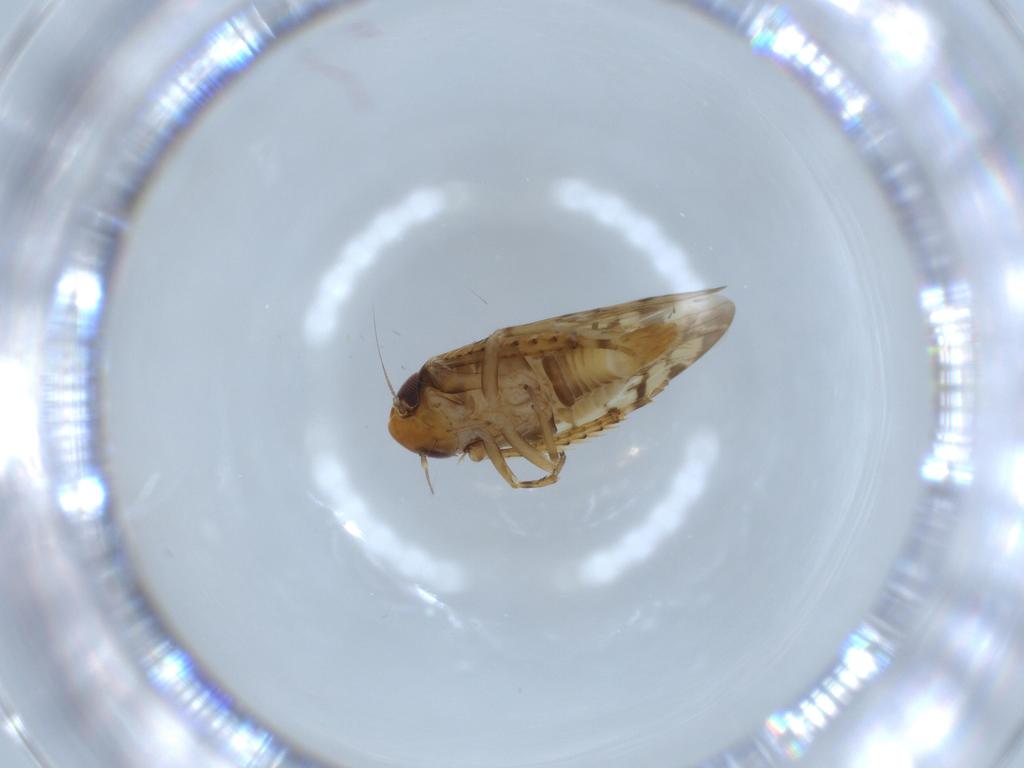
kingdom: Animalia
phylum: Arthropoda
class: Insecta
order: Hemiptera
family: Cicadellidae
